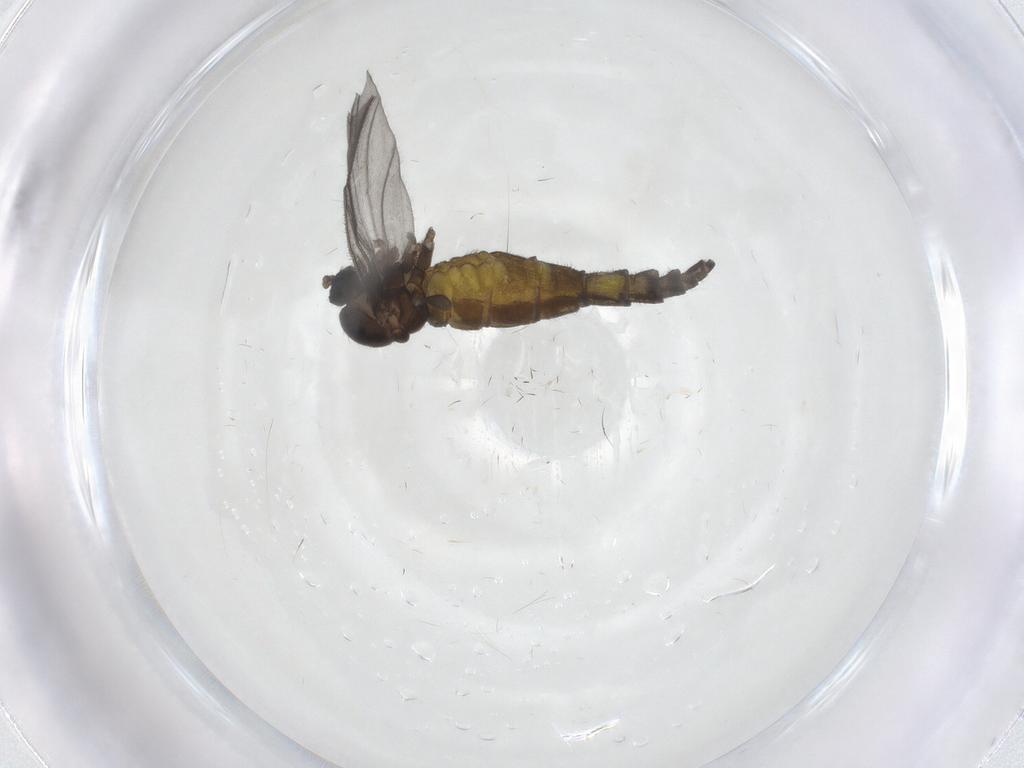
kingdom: Animalia
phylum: Arthropoda
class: Insecta
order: Diptera
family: Sciaridae
